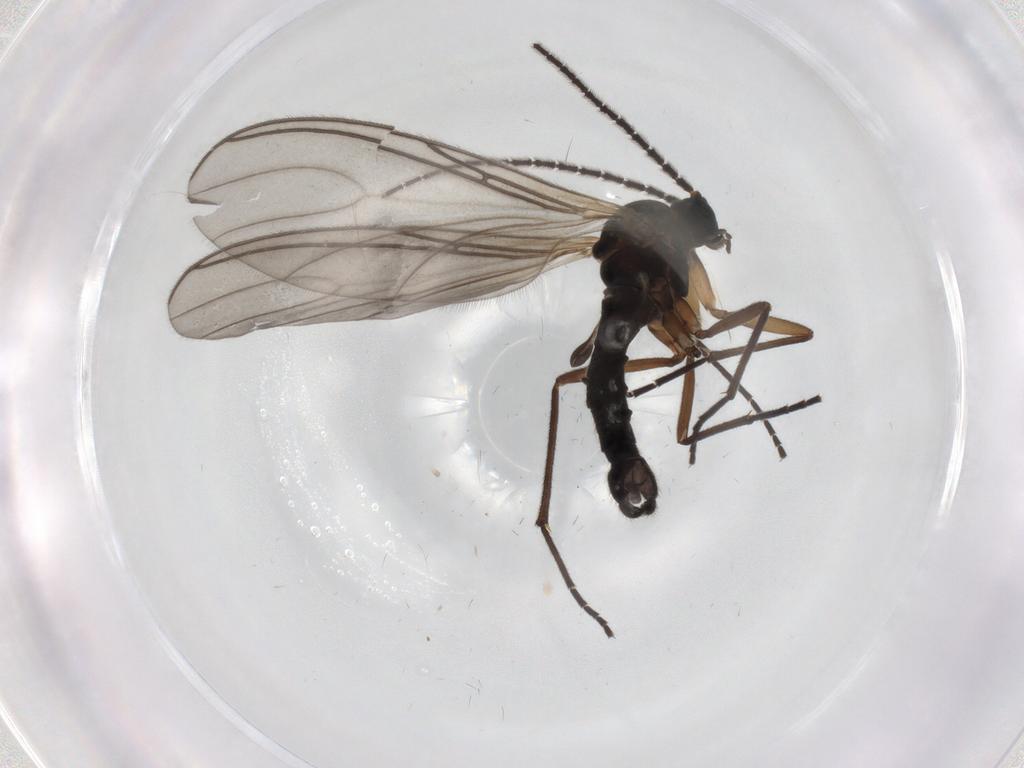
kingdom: Animalia
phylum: Arthropoda
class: Insecta
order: Diptera
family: Sciaridae
